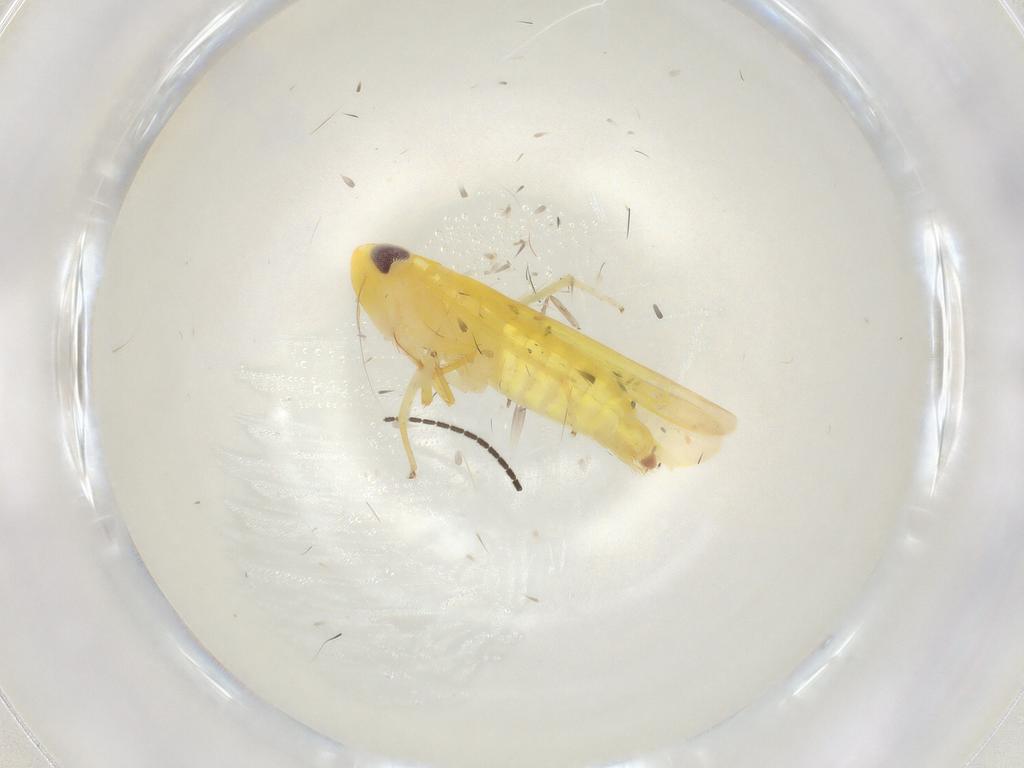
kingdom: Animalia
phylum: Arthropoda
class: Insecta
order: Hemiptera
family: Cicadellidae
